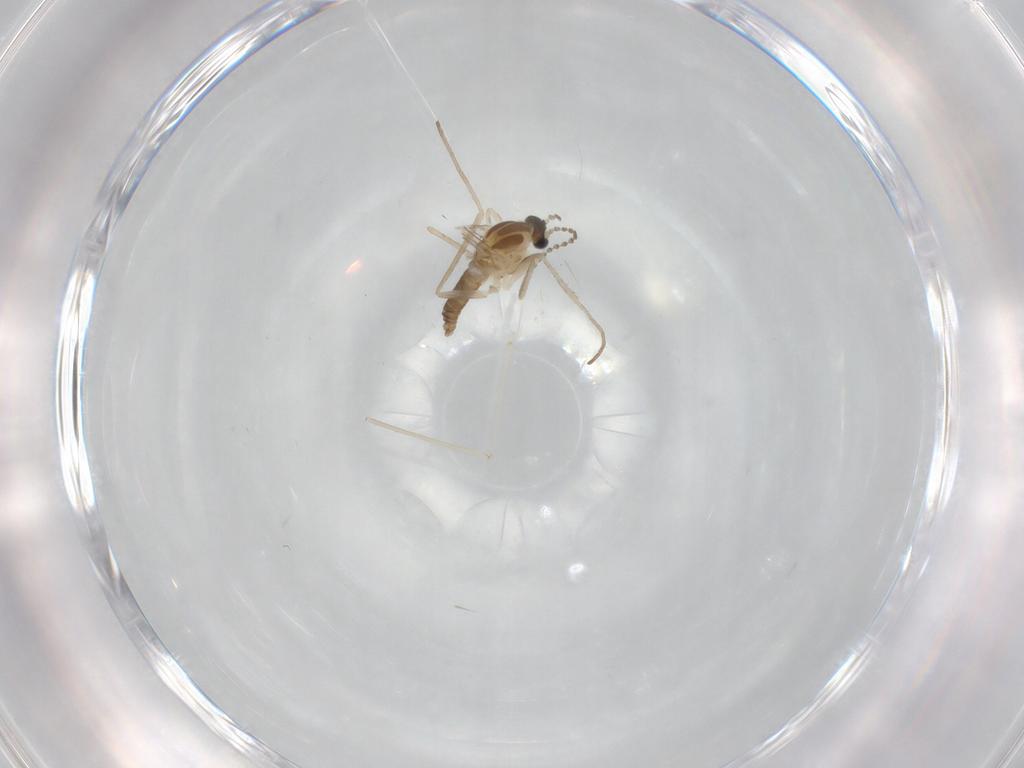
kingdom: Animalia
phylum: Arthropoda
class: Insecta
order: Diptera
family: Cecidomyiidae
